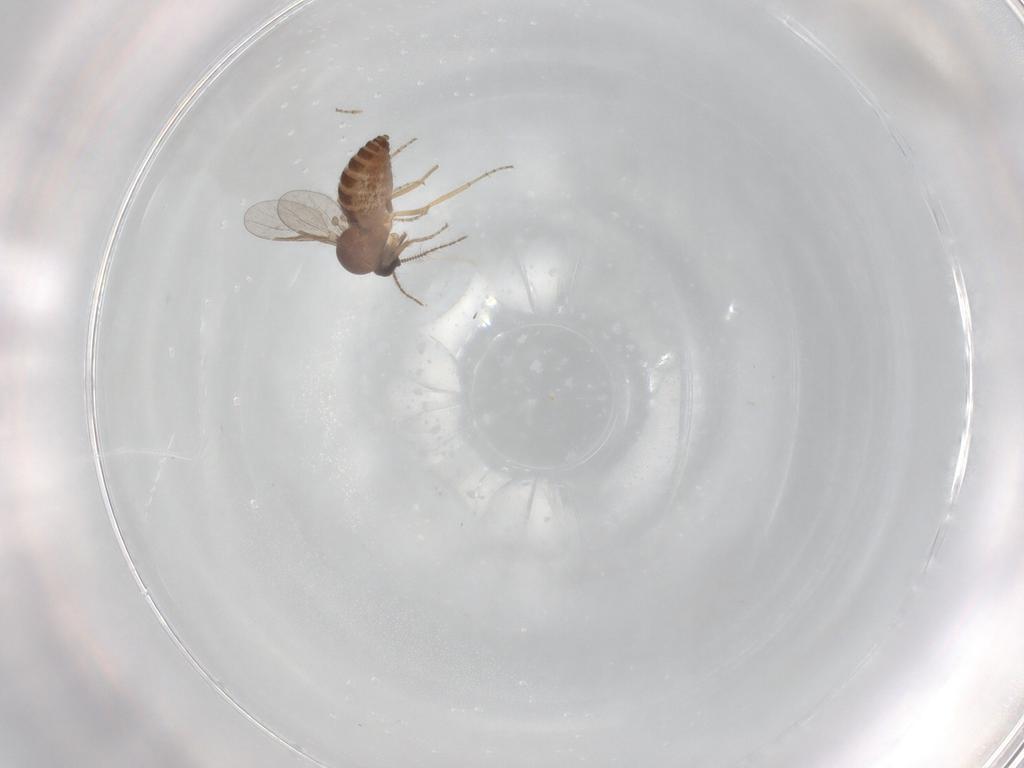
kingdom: Animalia
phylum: Arthropoda
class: Insecta
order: Diptera
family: Ceratopogonidae
